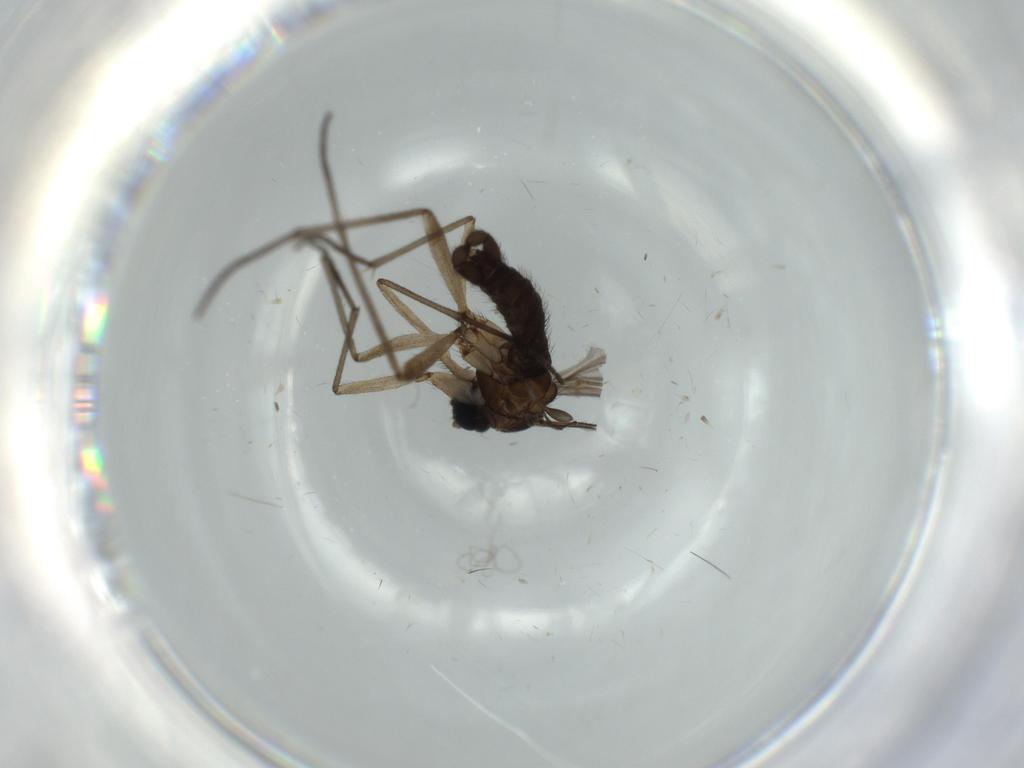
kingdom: Animalia
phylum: Arthropoda
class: Insecta
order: Diptera
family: Sciaridae
